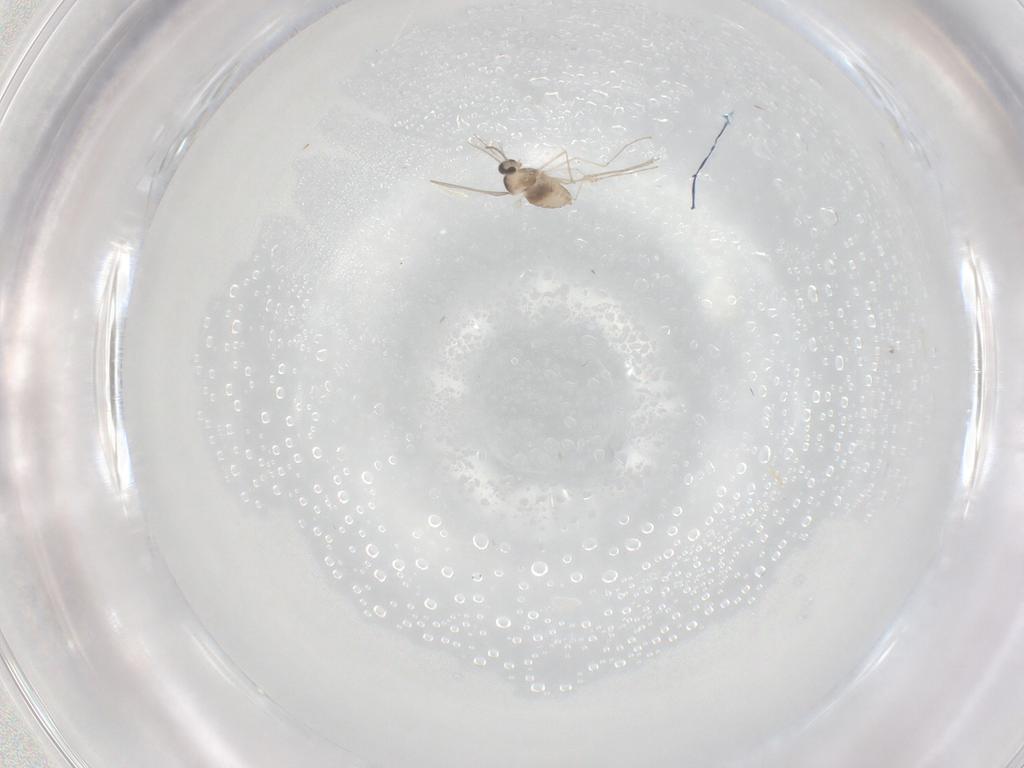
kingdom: Animalia
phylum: Arthropoda
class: Insecta
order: Diptera
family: Cecidomyiidae
